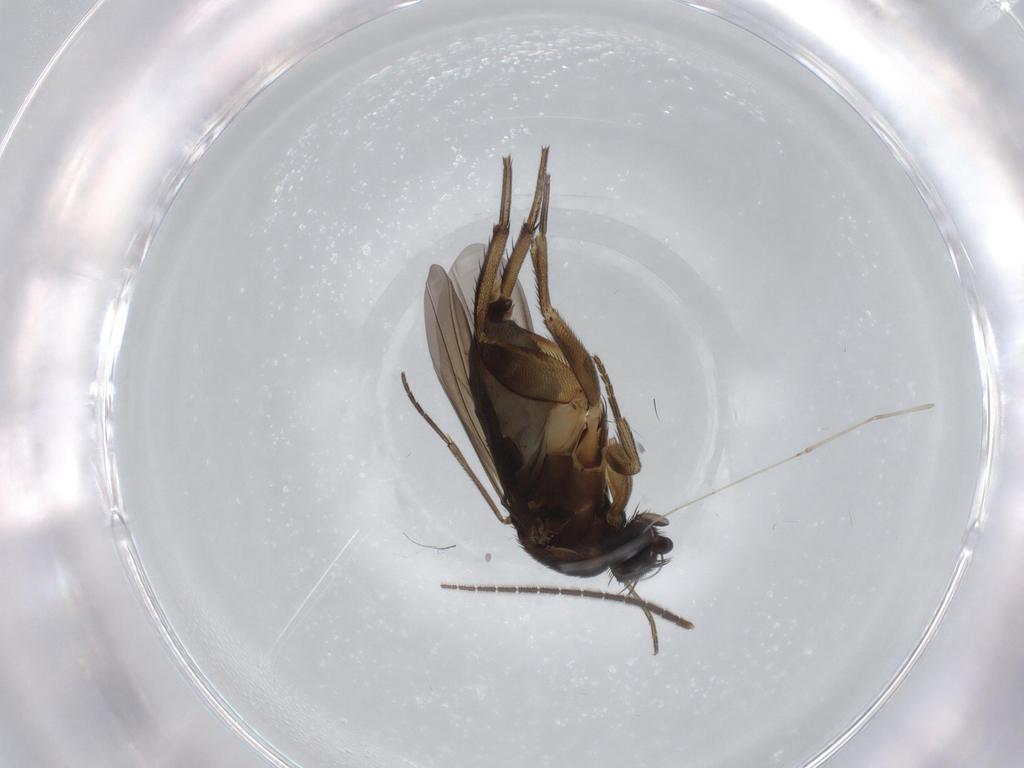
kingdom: Animalia
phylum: Arthropoda
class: Insecta
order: Diptera
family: Phoridae
